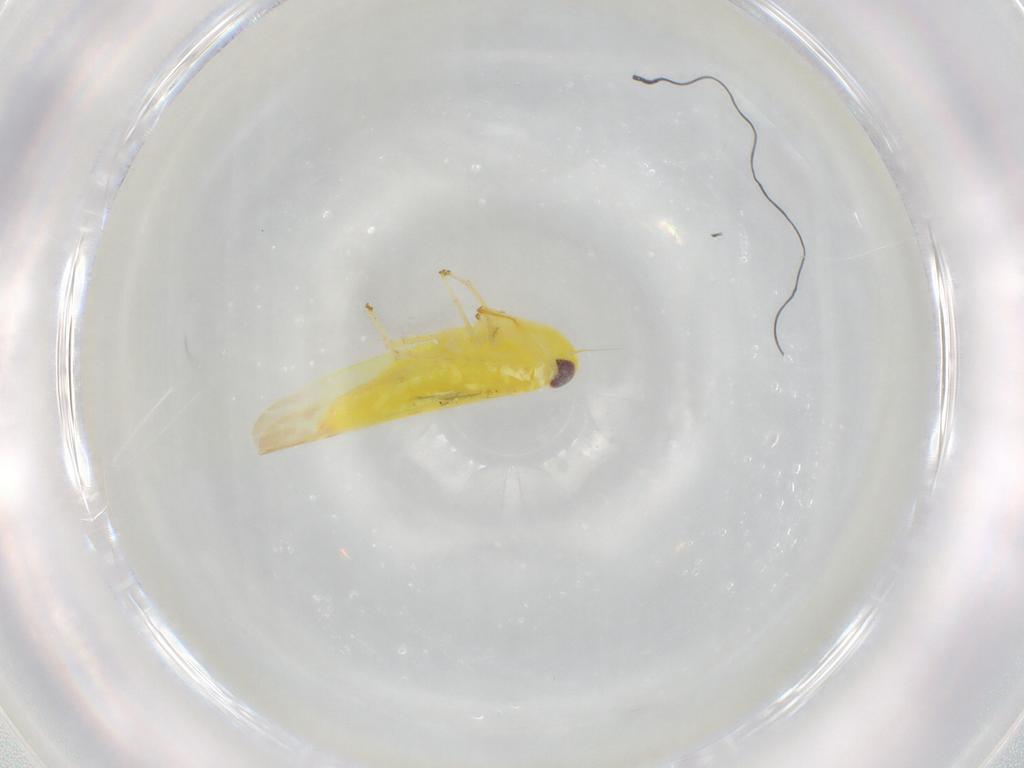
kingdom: Animalia
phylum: Arthropoda
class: Insecta
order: Hemiptera
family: Cicadellidae
